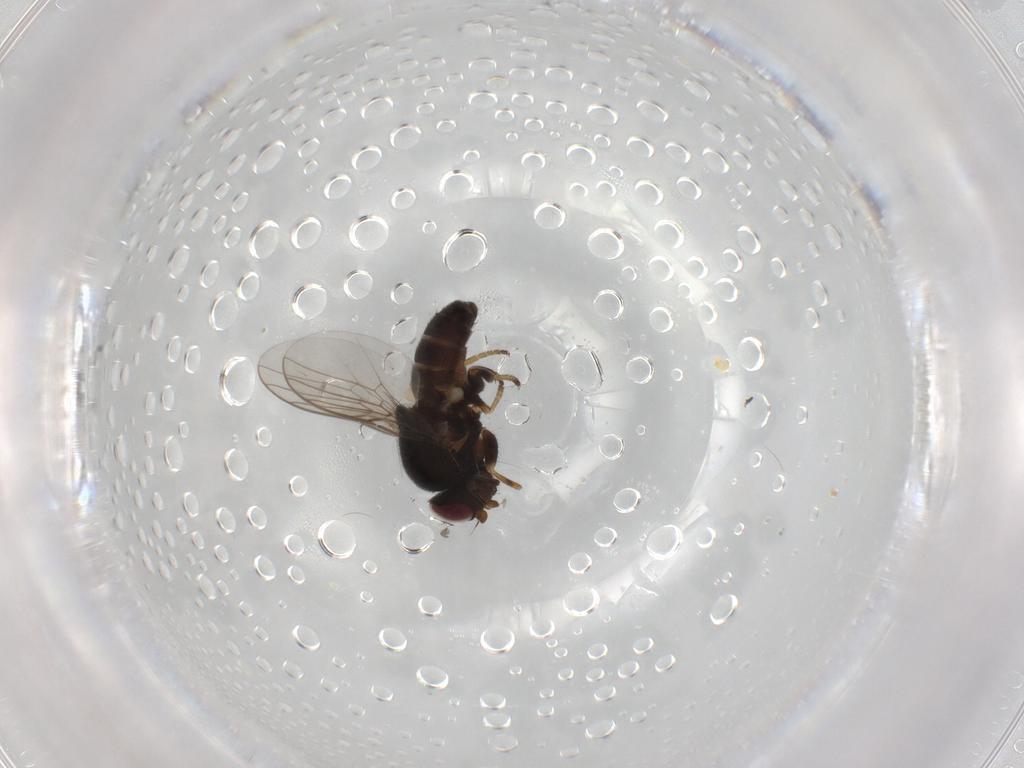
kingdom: Animalia
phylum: Arthropoda
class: Insecta
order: Diptera
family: Chloropidae
